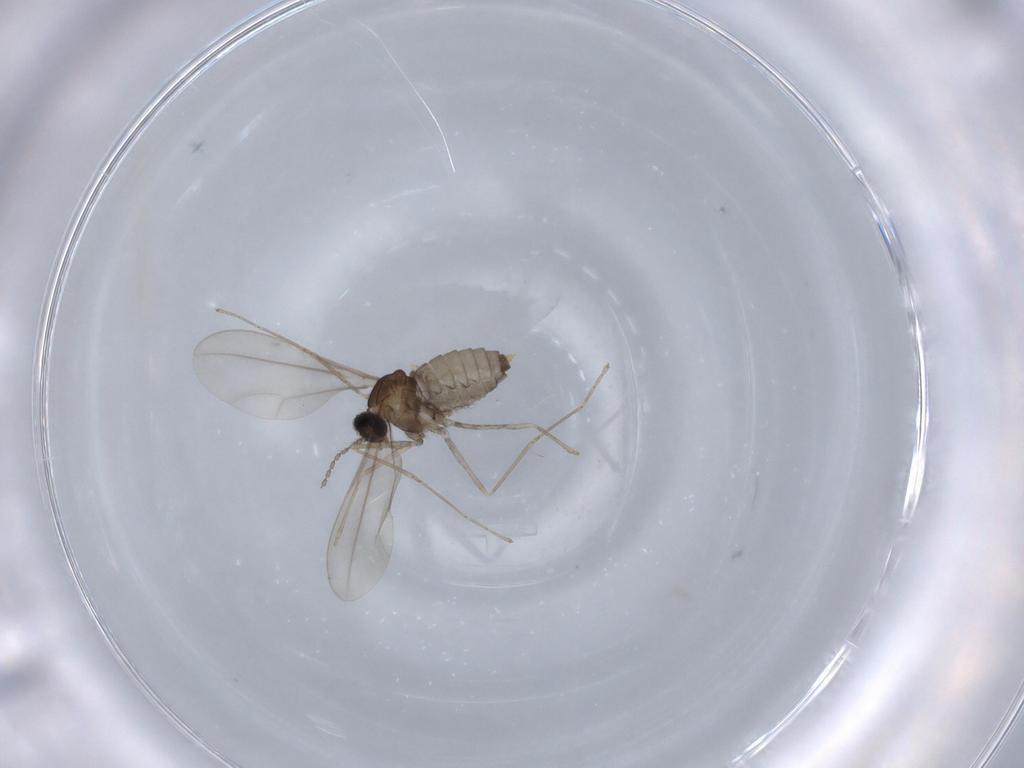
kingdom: Animalia
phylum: Arthropoda
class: Insecta
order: Diptera
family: Cecidomyiidae
